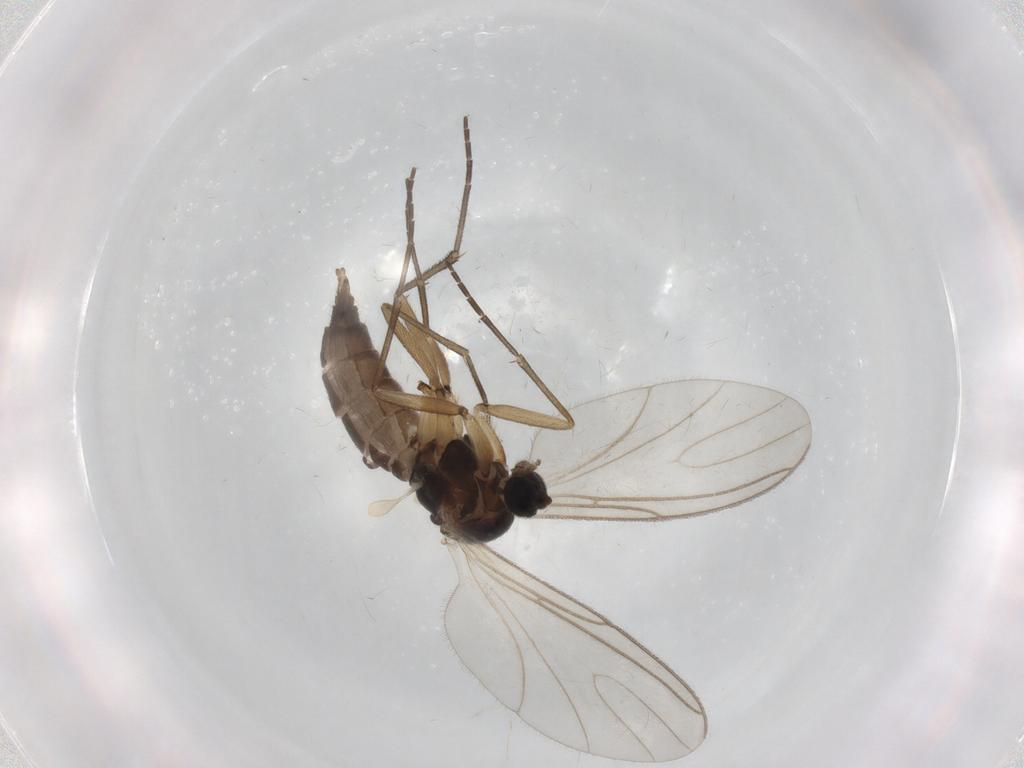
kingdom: Animalia
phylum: Arthropoda
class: Insecta
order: Diptera
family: Sciaridae
